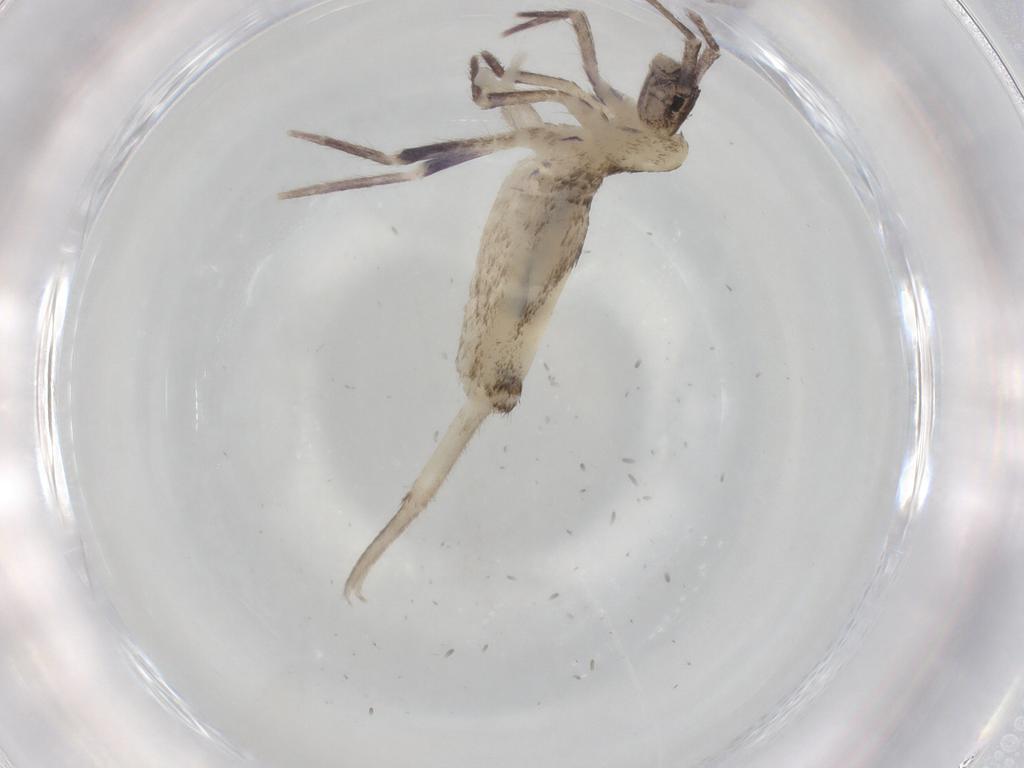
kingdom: Animalia
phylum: Arthropoda
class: Collembola
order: Entomobryomorpha
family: Entomobryidae
